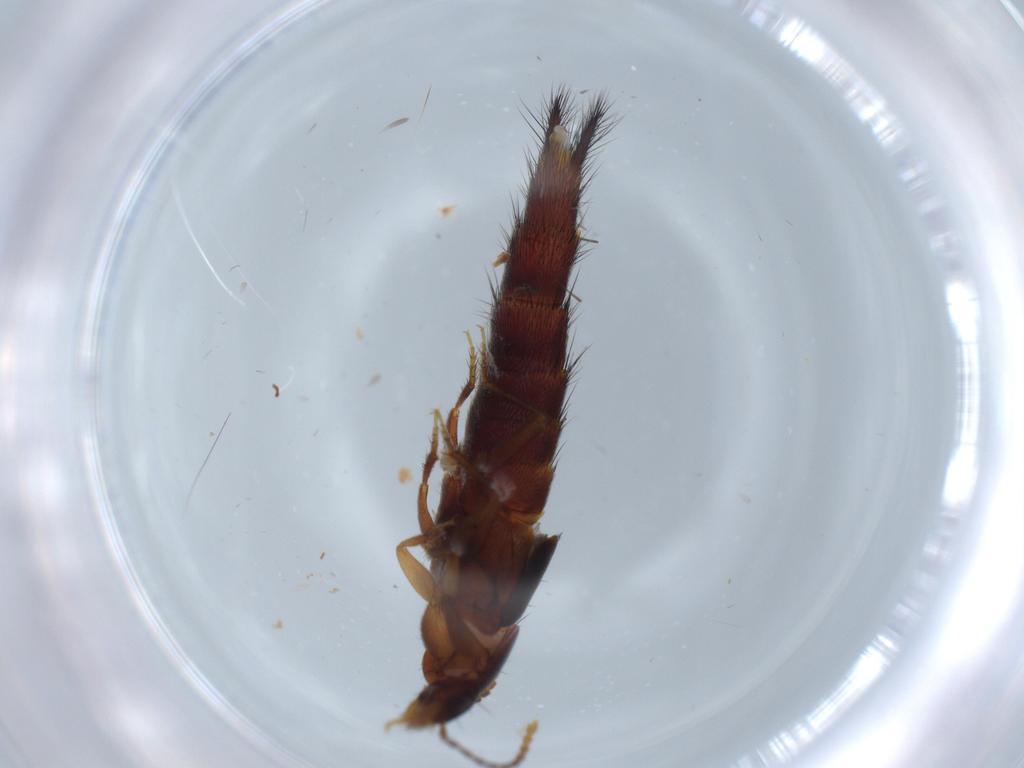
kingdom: Animalia
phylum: Arthropoda
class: Insecta
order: Coleoptera
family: Staphylinidae
